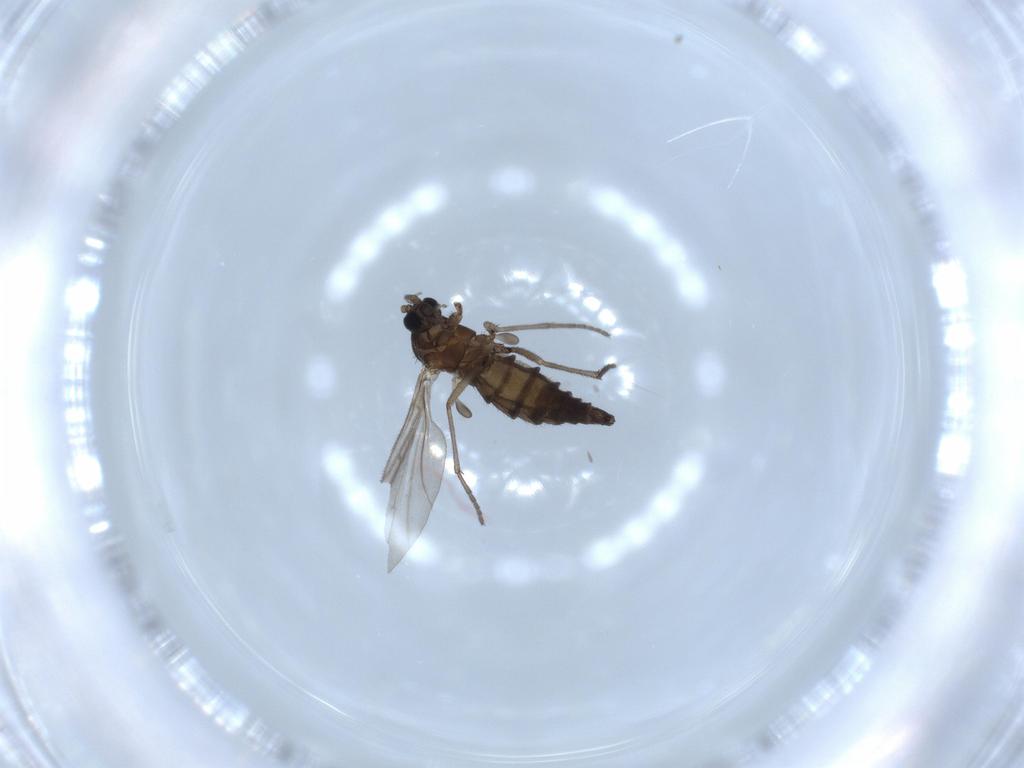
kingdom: Animalia
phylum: Arthropoda
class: Insecta
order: Diptera
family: Sciaridae
